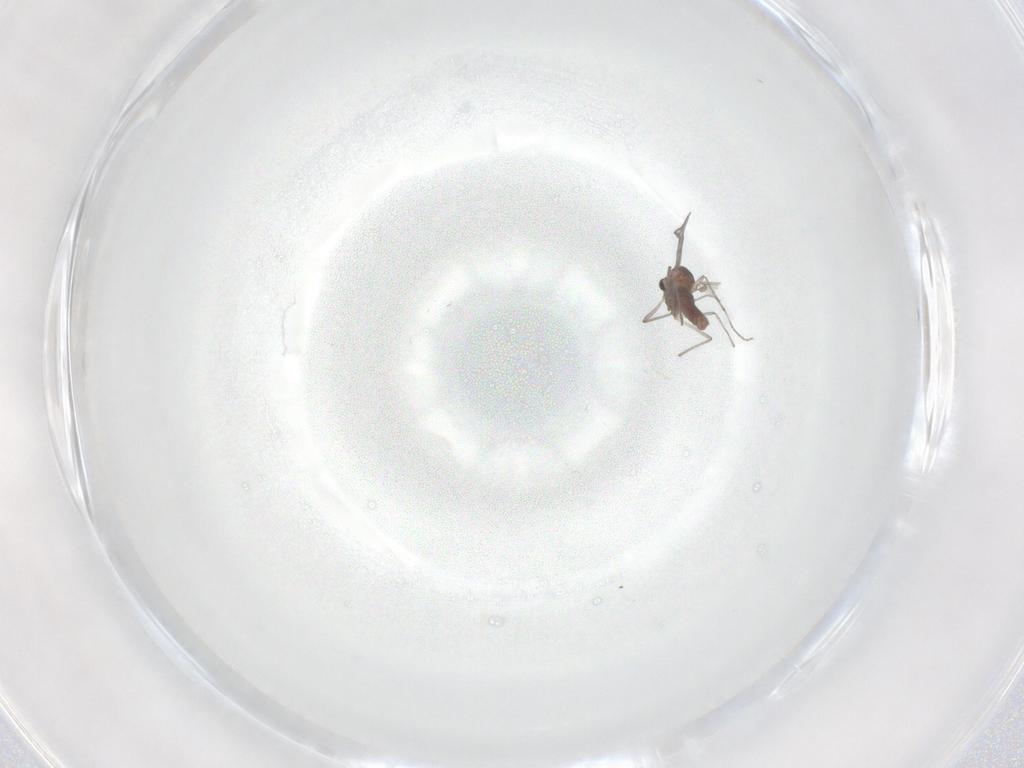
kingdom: Animalia
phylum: Arthropoda
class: Insecta
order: Diptera
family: Chironomidae
